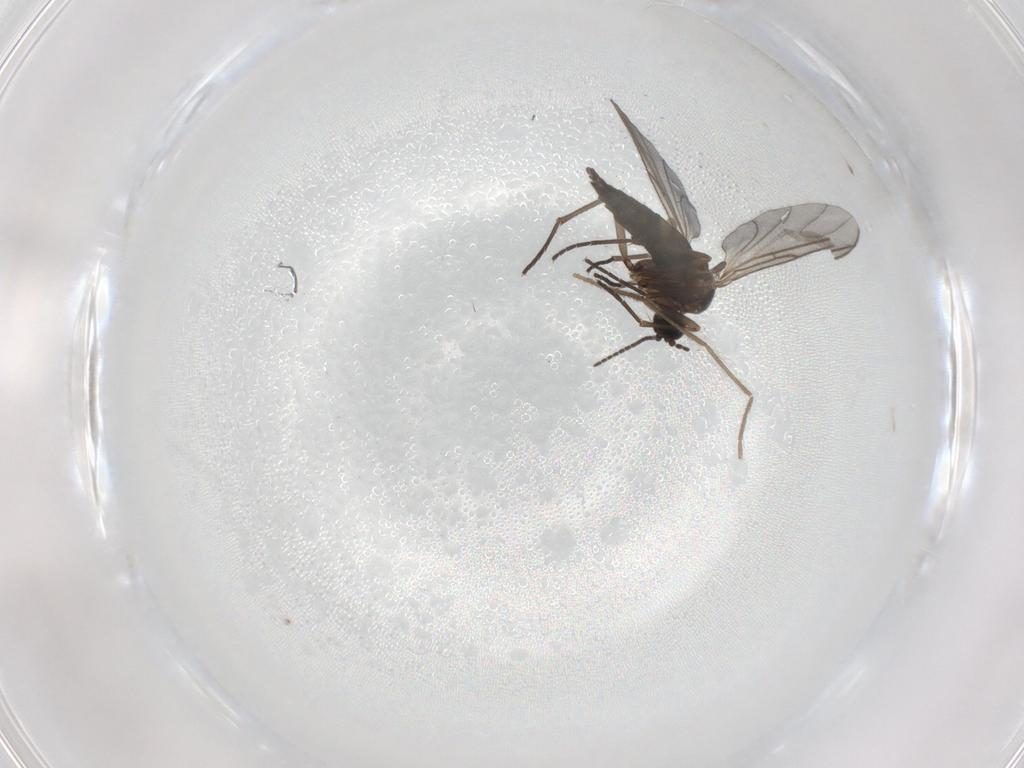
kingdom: Animalia
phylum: Arthropoda
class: Insecta
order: Diptera
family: Sciaridae
